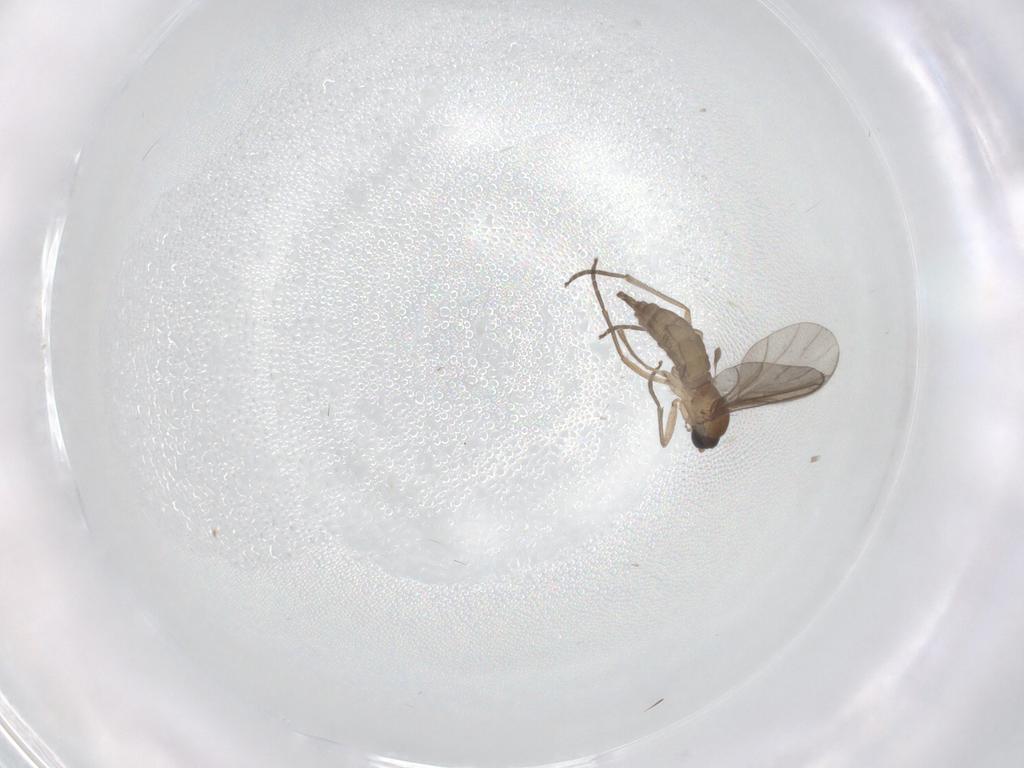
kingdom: Animalia
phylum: Arthropoda
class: Insecta
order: Diptera
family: Sciaridae
